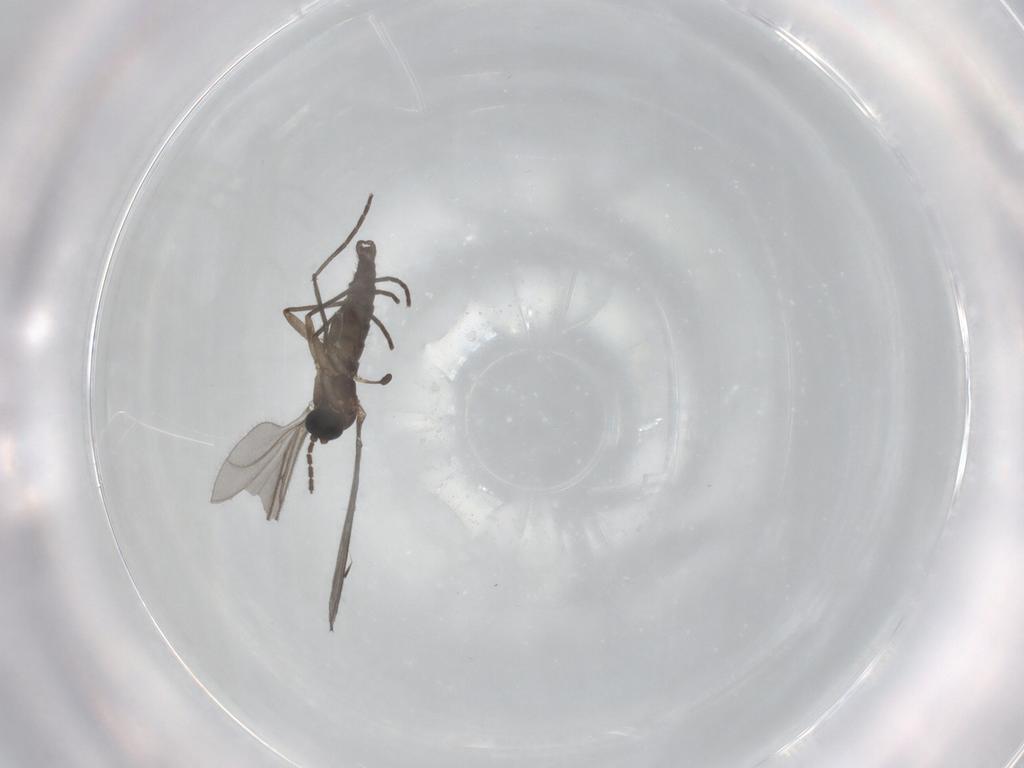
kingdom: Animalia
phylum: Arthropoda
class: Insecta
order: Diptera
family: Sciaridae
